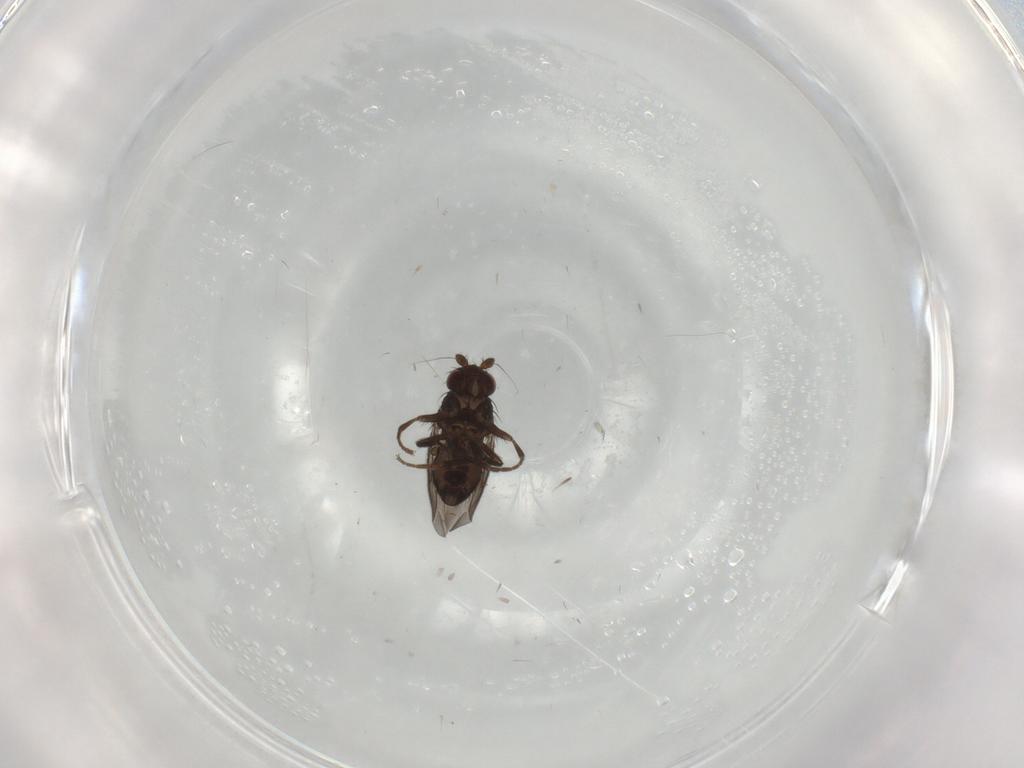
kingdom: Animalia
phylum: Arthropoda
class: Insecta
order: Diptera
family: Sphaeroceridae
